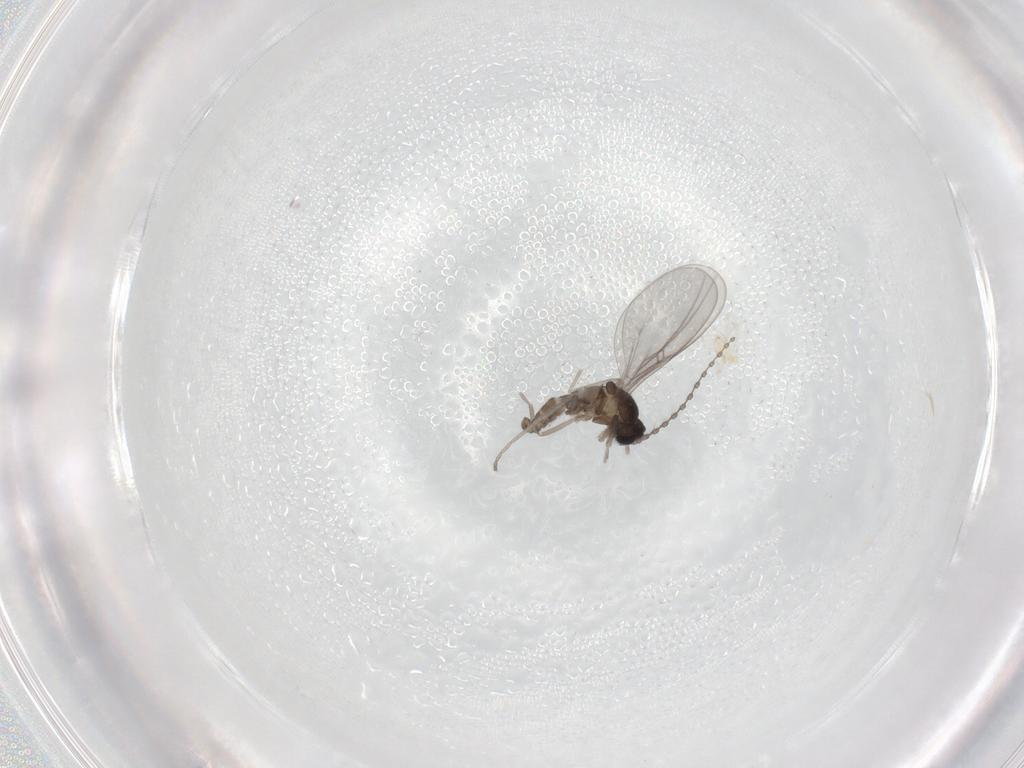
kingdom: Animalia
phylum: Arthropoda
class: Insecta
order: Diptera
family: Cecidomyiidae
